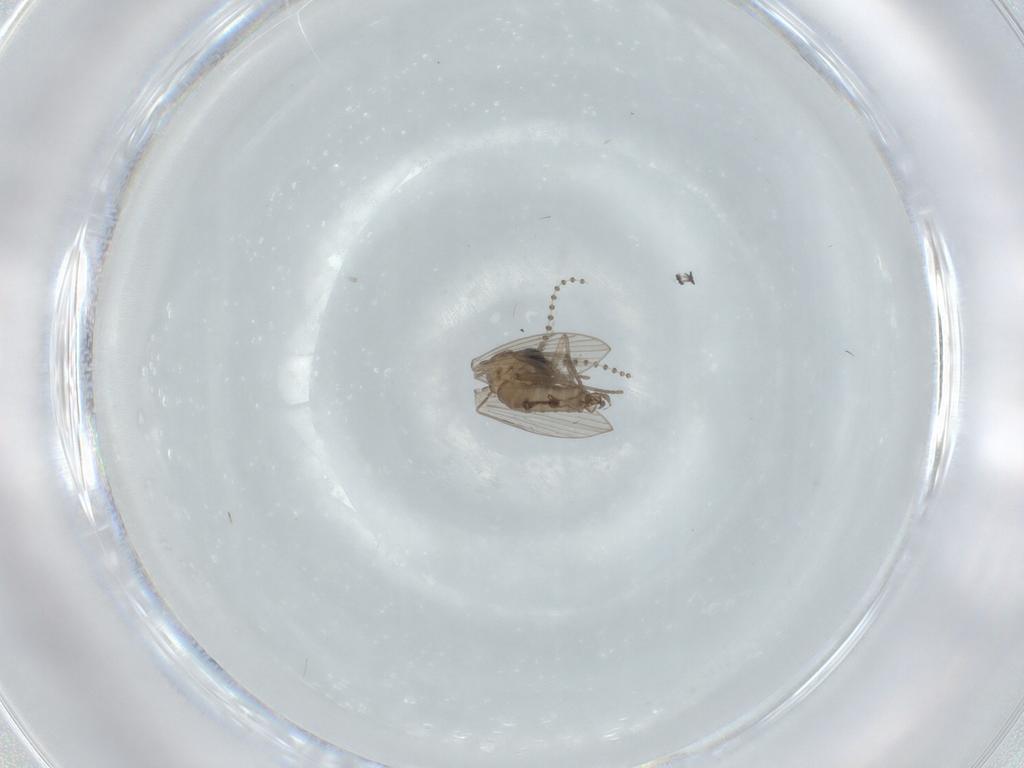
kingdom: Animalia
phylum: Arthropoda
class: Insecta
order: Diptera
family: Psychodidae
